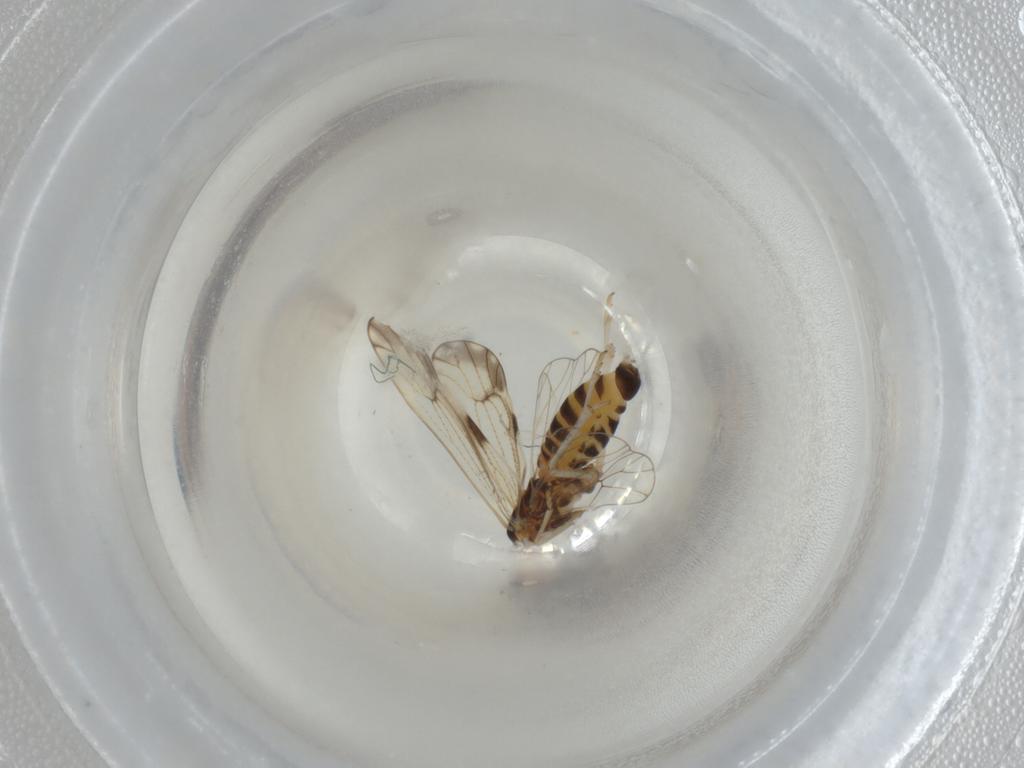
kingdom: Animalia
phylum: Arthropoda
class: Insecta
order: Hemiptera
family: Delphacidae
